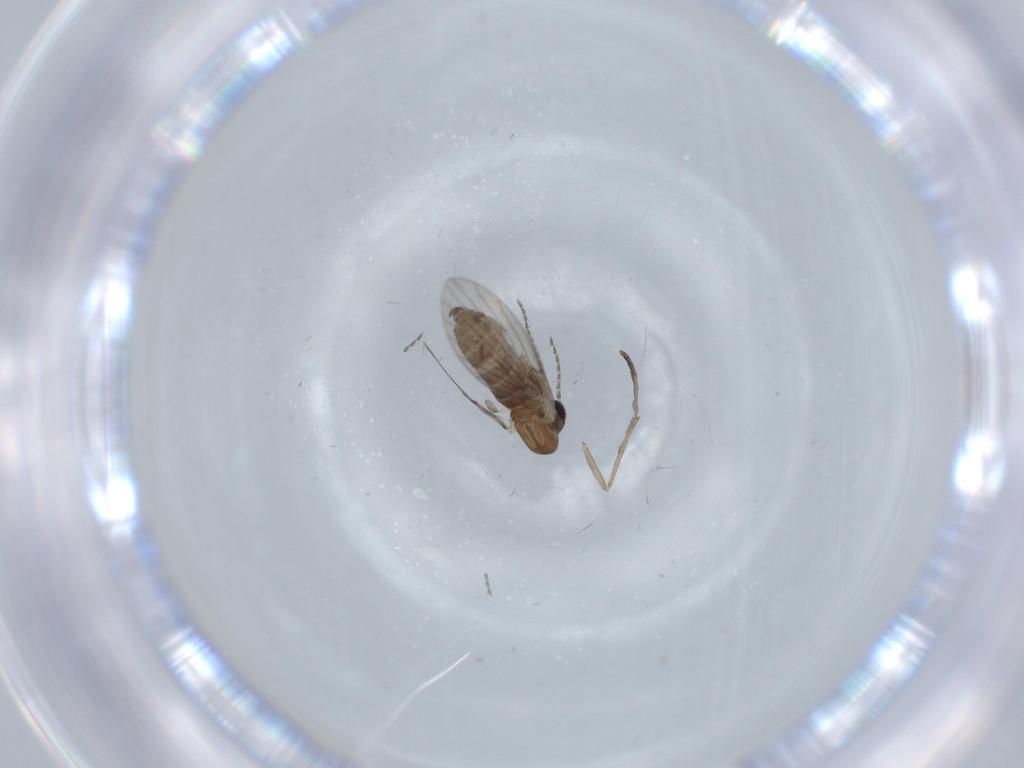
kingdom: Animalia
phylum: Arthropoda
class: Insecta
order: Diptera
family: Psychodidae
